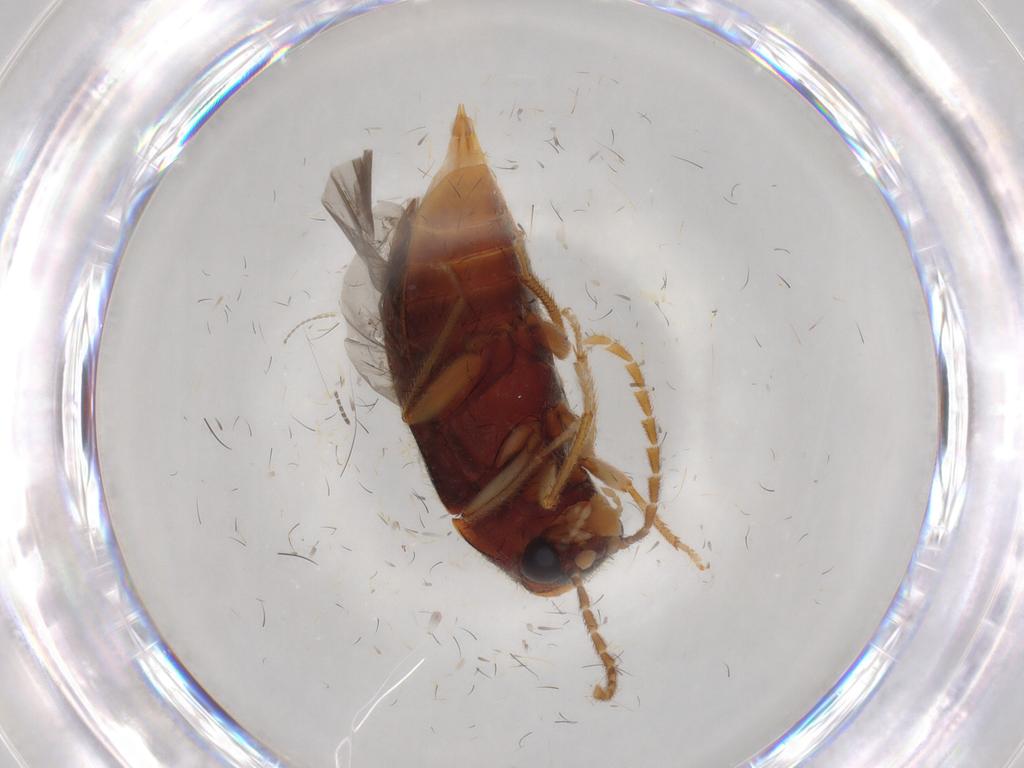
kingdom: Animalia
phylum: Arthropoda
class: Insecta
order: Coleoptera
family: Ptilodactylidae
